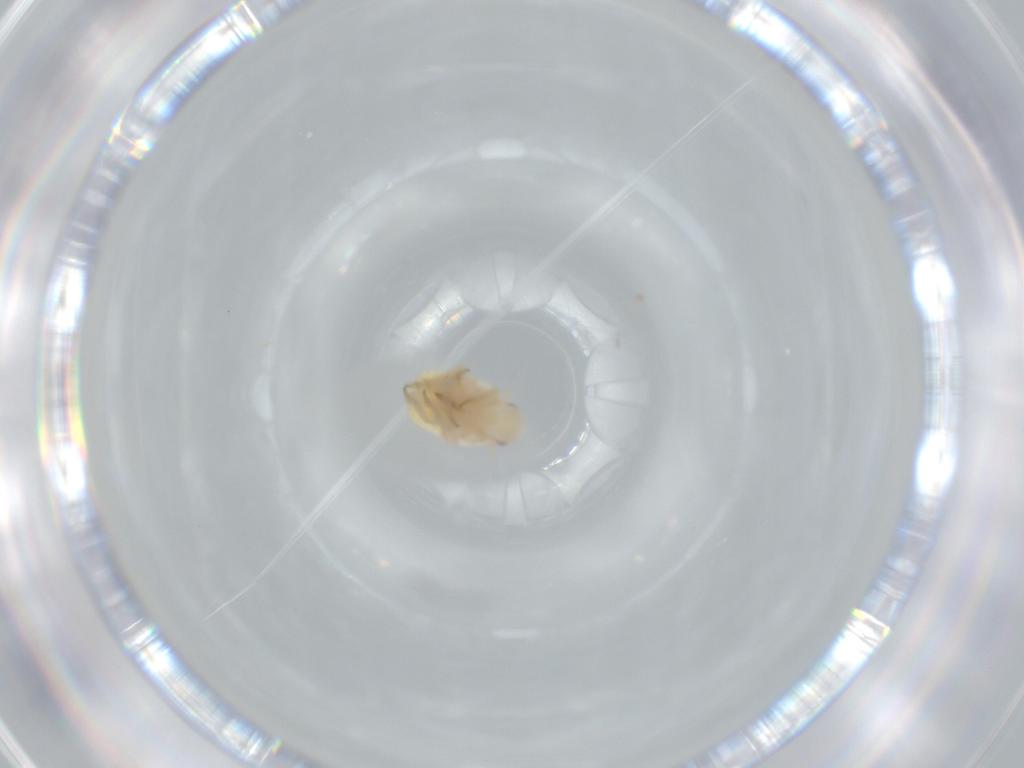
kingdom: Animalia
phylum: Arthropoda
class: Insecta
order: Hemiptera
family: Flatidae
